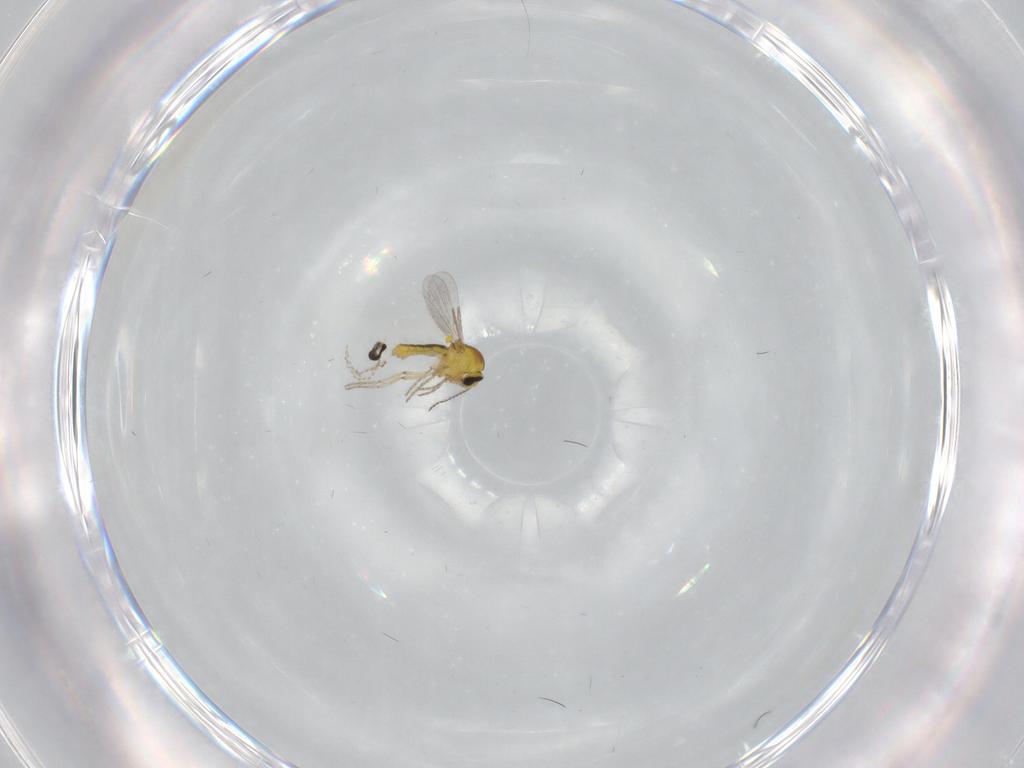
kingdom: Animalia
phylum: Arthropoda
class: Insecta
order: Diptera
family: Cecidomyiidae
